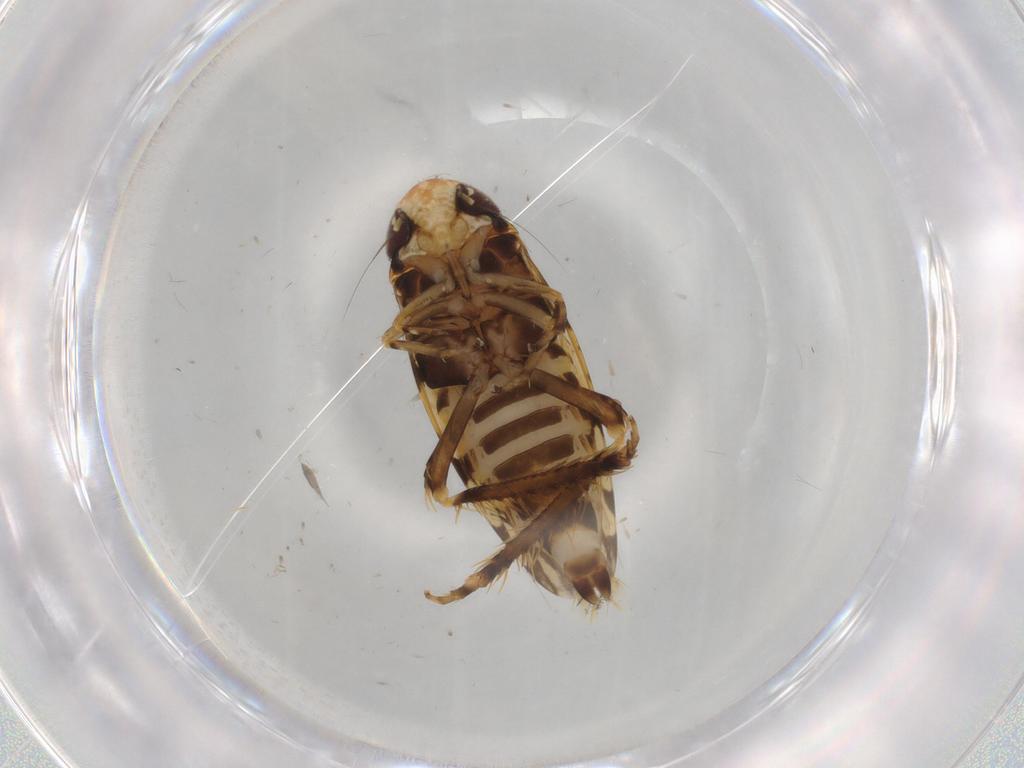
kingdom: Animalia
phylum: Arthropoda
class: Insecta
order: Hemiptera
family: Cicadellidae
